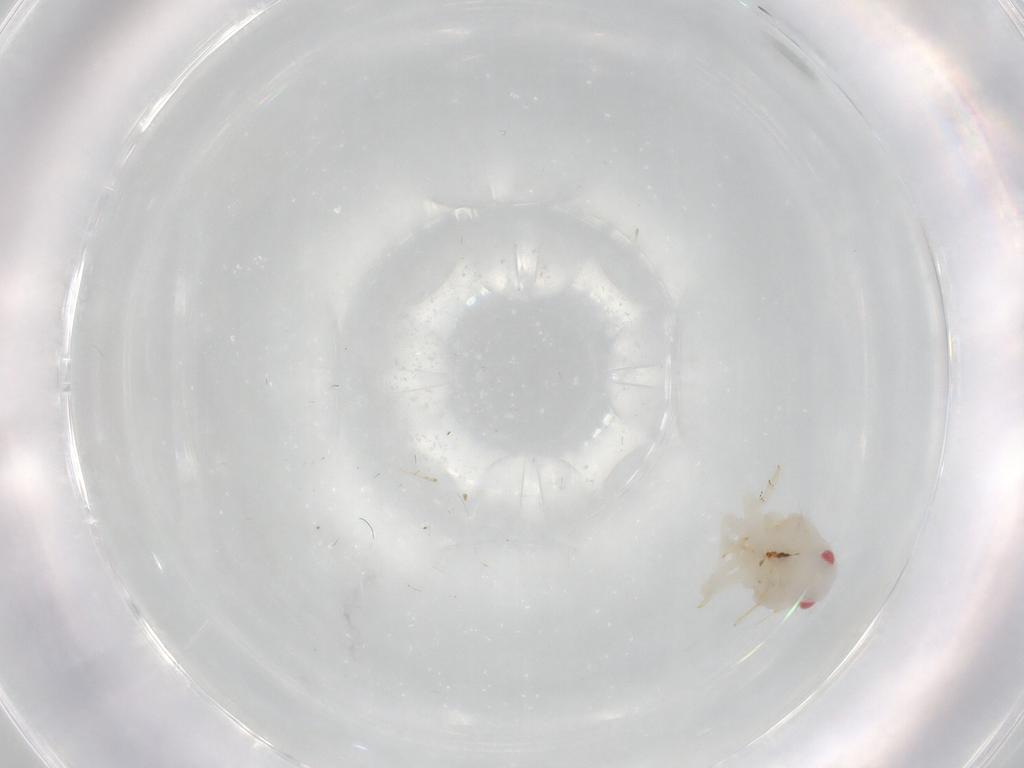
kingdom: Animalia
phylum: Arthropoda
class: Insecta
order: Hemiptera
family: Flatidae
